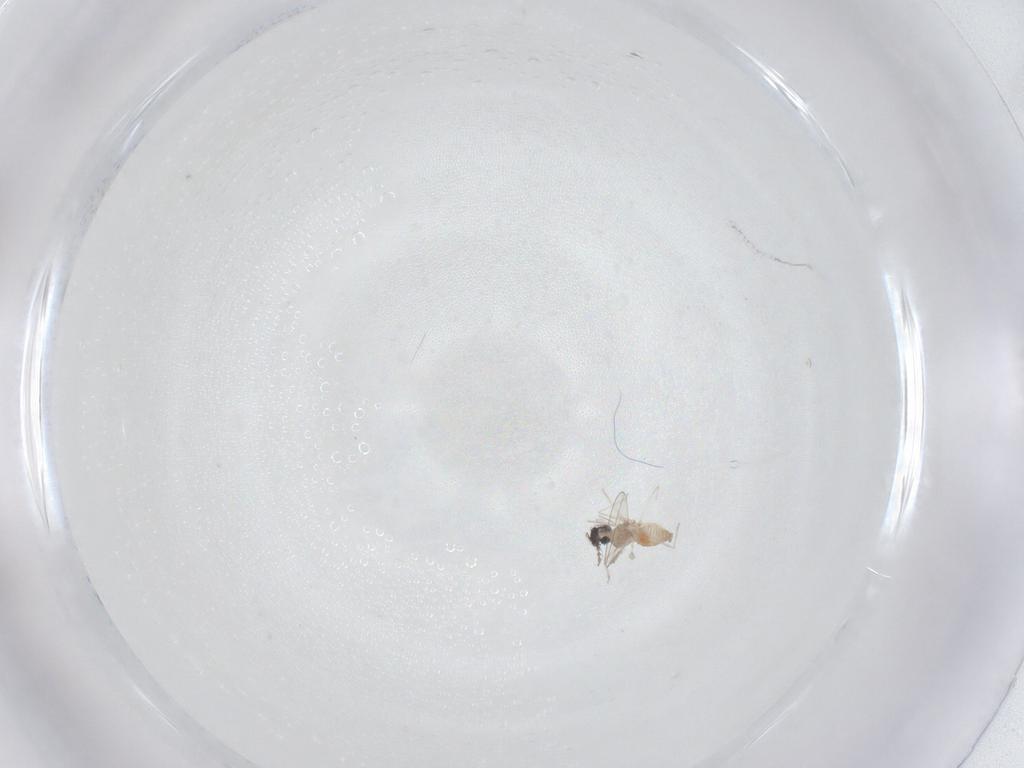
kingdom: Animalia
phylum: Arthropoda
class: Insecta
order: Diptera
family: Cecidomyiidae
